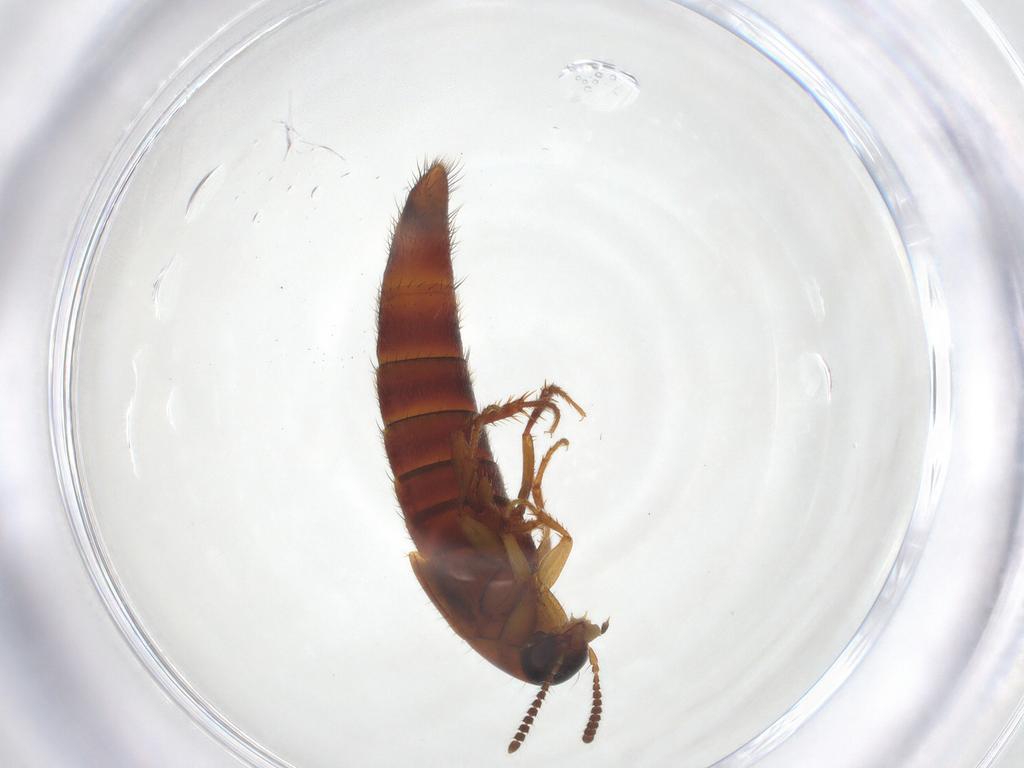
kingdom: Animalia
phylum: Arthropoda
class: Insecta
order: Coleoptera
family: Staphylinidae
